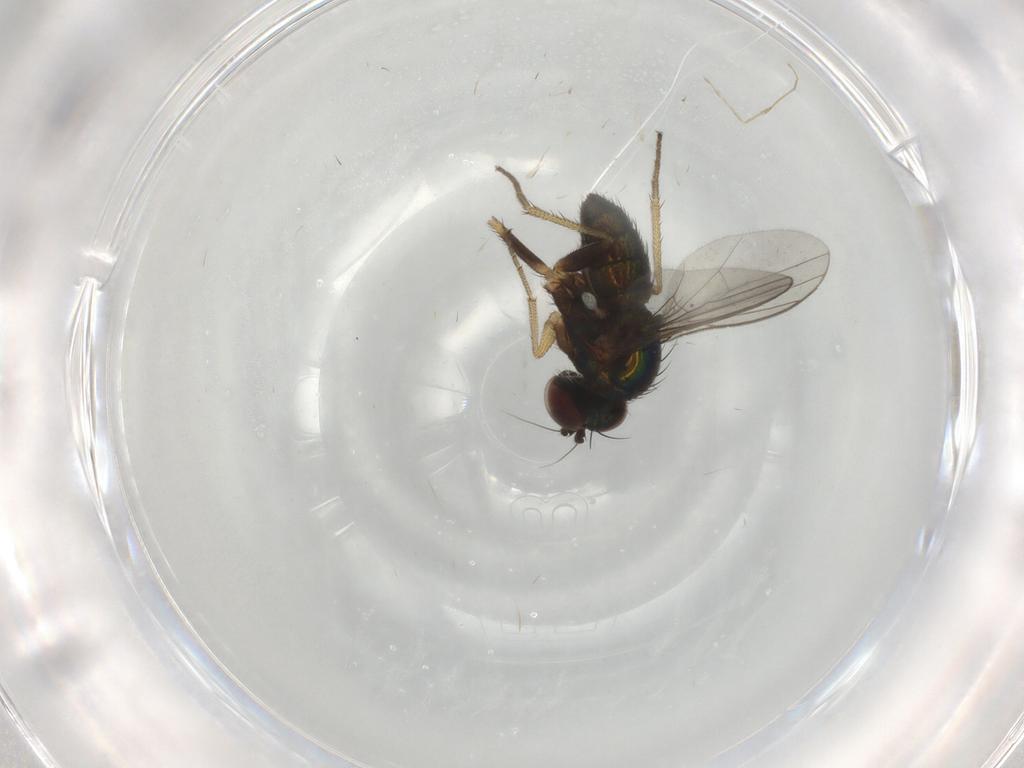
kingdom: Animalia
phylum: Arthropoda
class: Insecta
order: Diptera
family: Dolichopodidae
